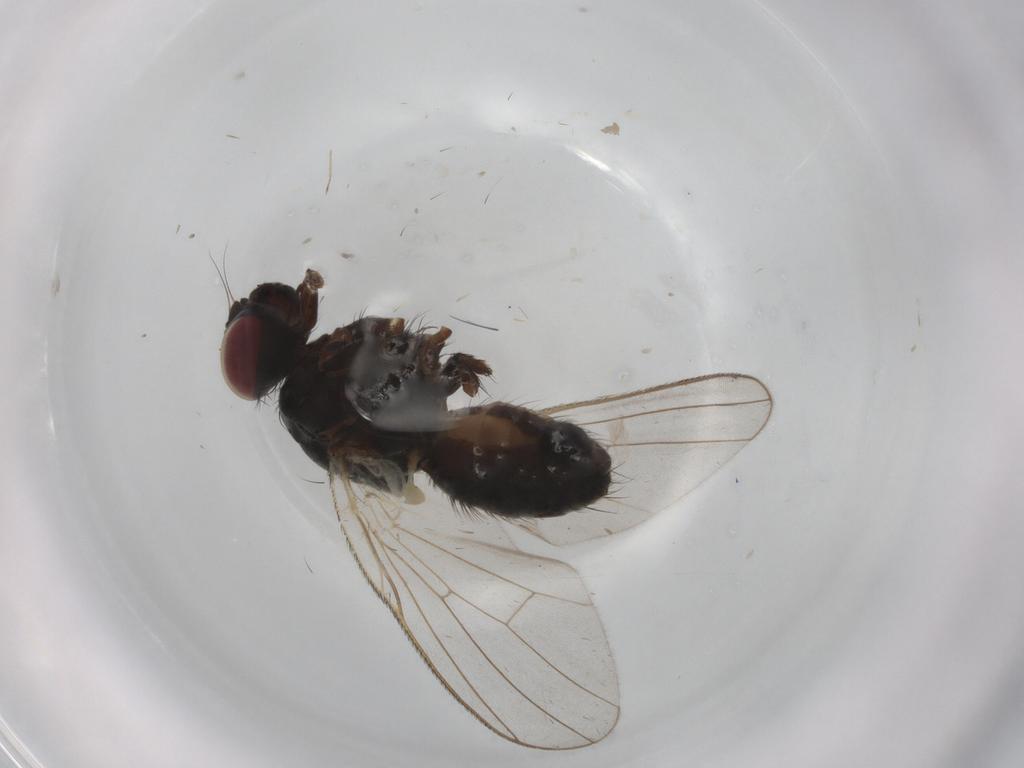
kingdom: Animalia
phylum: Arthropoda
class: Insecta
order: Diptera
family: Muscidae
